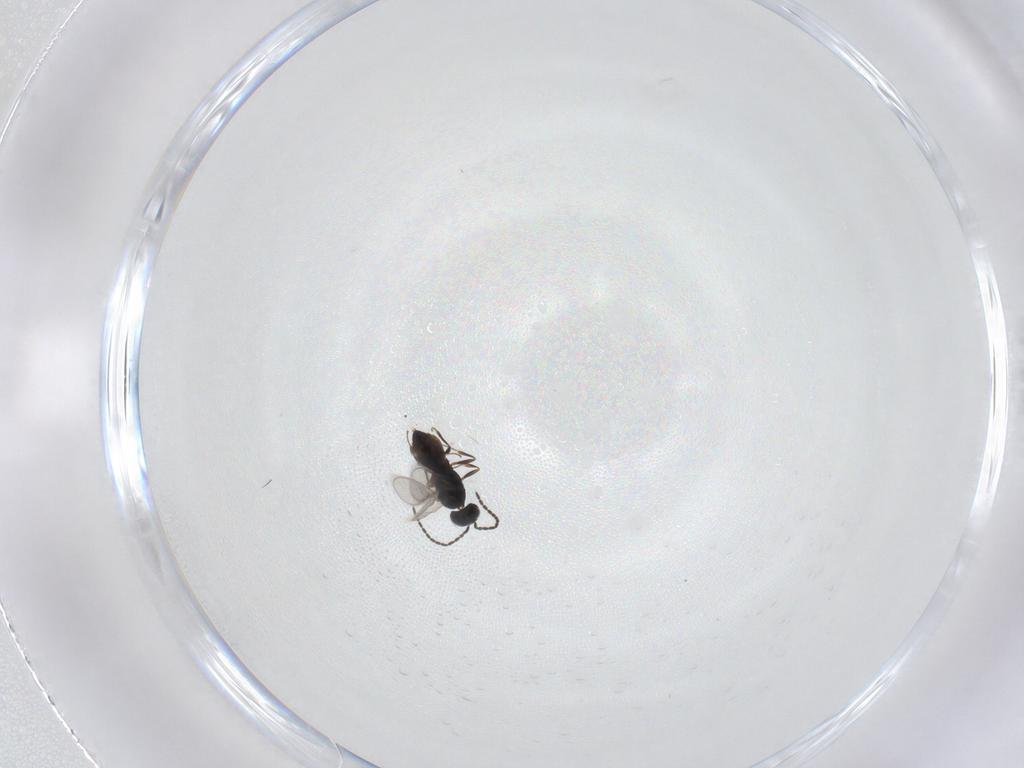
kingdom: Animalia
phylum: Arthropoda
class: Insecta
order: Hymenoptera
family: Scelionidae
